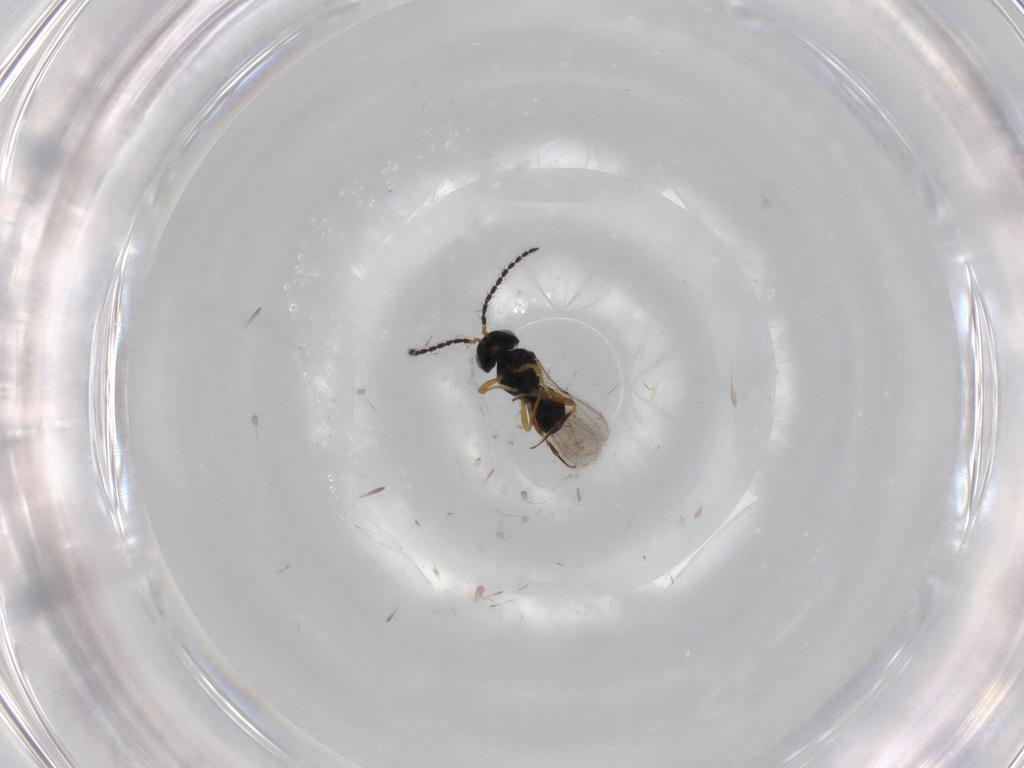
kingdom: Animalia
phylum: Arthropoda
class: Insecta
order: Hymenoptera
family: Scelionidae
